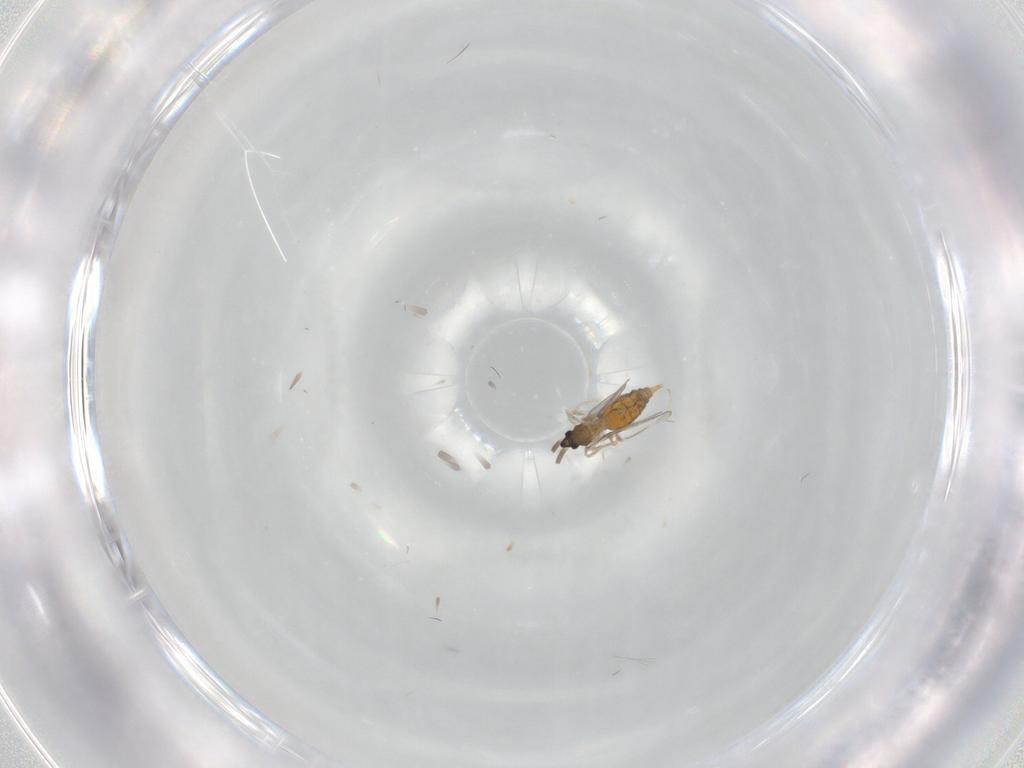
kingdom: Animalia
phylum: Arthropoda
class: Insecta
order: Diptera
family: Cecidomyiidae
